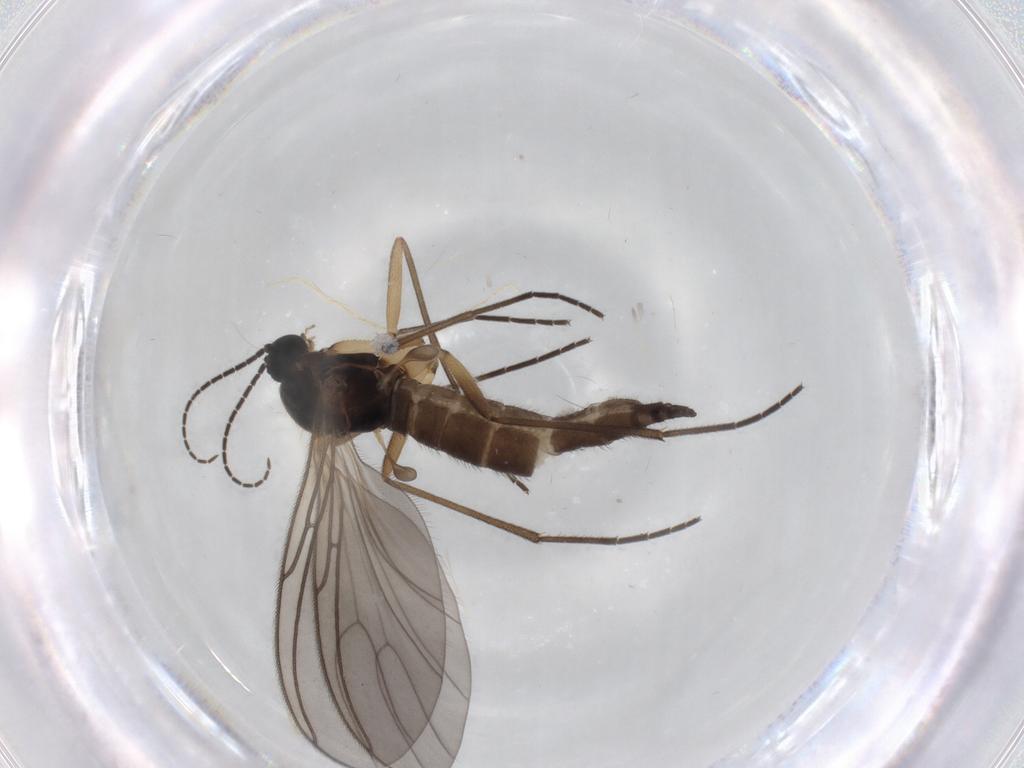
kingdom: Animalia
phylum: Arthropoda
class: Insecta
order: Diptera
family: Sciaridae
